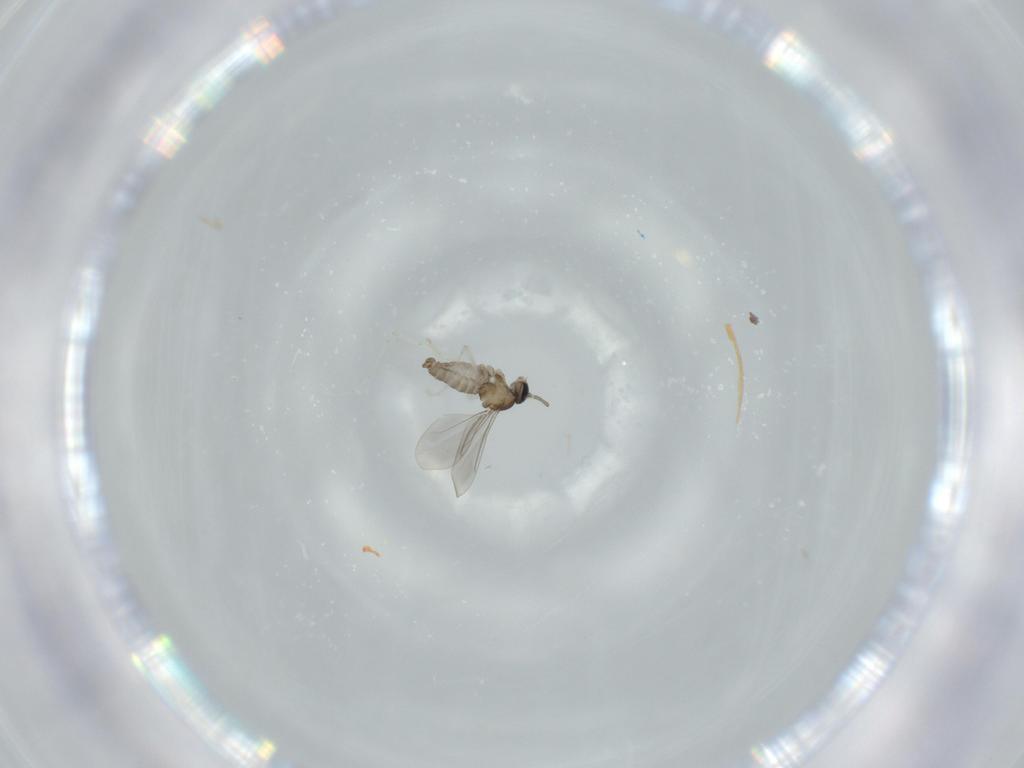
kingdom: Animalia
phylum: Arthropoda
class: Insecta
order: Diptera
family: Cecidomyiidae
